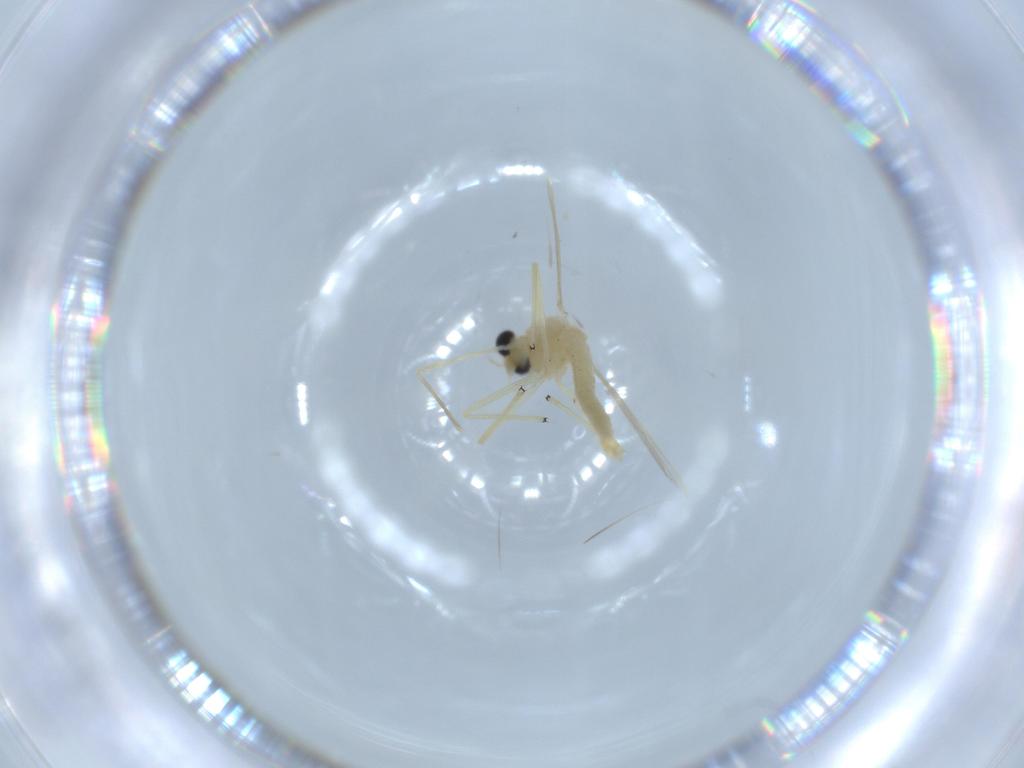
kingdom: Animalia
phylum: Arthropoda
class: Insecta
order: Diptera
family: Chironomidae
